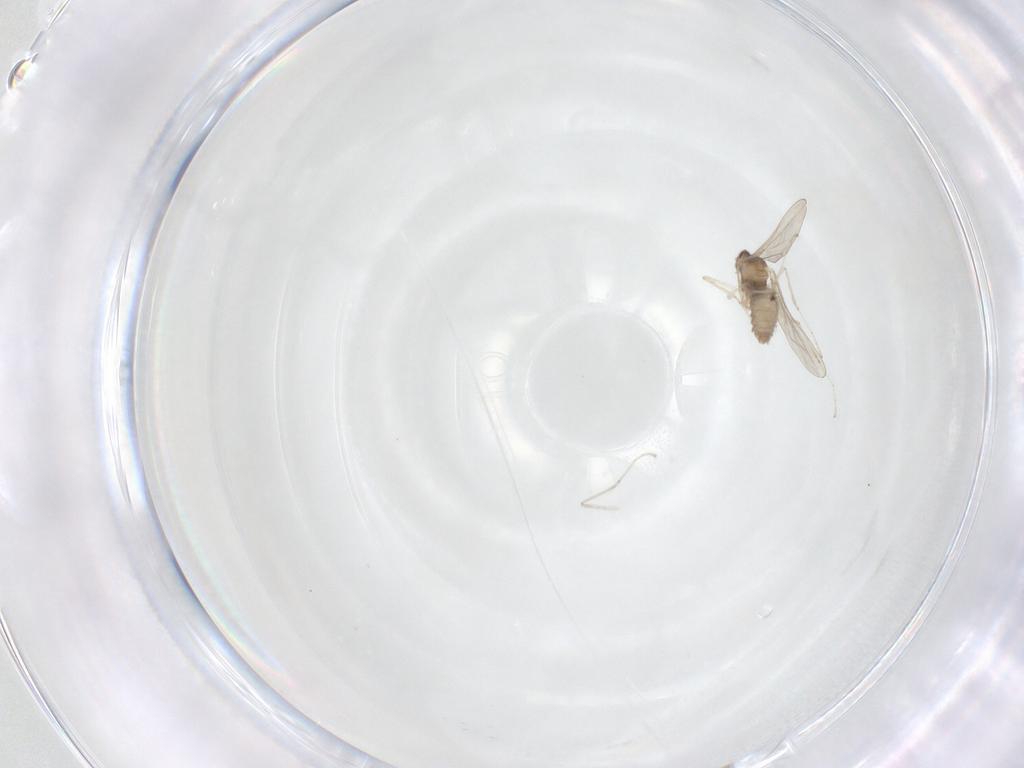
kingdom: Animalia
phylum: Arthropoda
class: Insecta
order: Diptera
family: Cecidomyiidae
